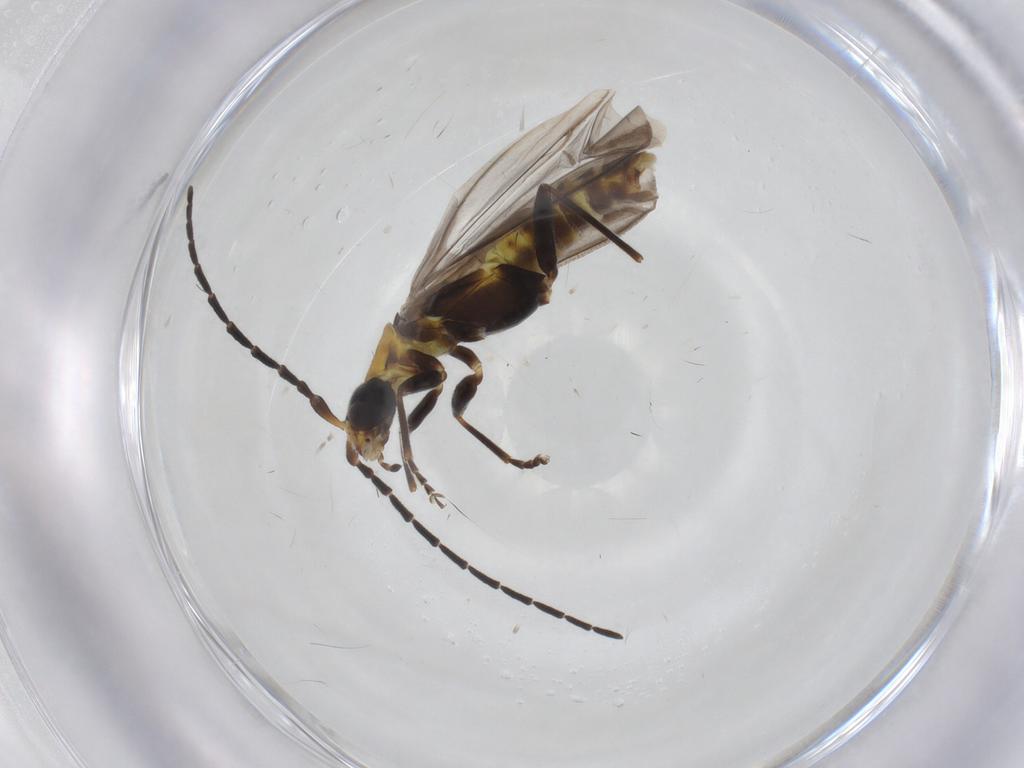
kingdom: Animalia
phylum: Arthropoda
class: Insecta
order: Coleoptera
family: Cantharidae
